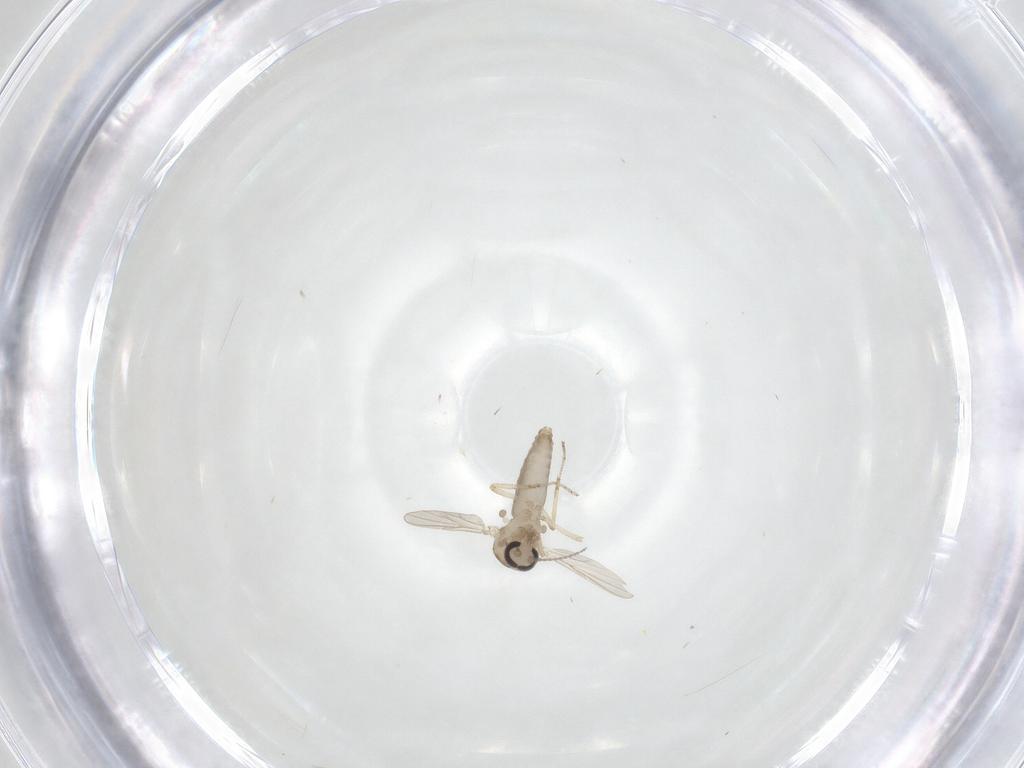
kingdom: Animalia
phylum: Arthropoda
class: Insecta
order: Diptera
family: Ceratopogonidae
